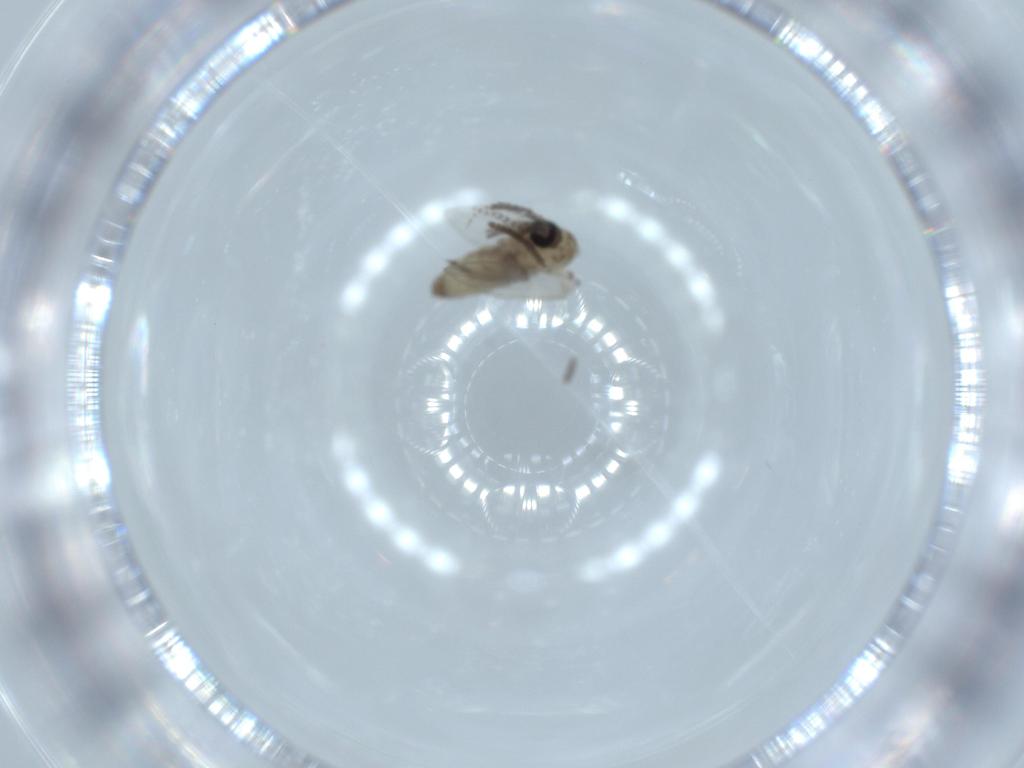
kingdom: Animalia
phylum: Arthropoda
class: Insecta
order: Diptera
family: Psychodidae
